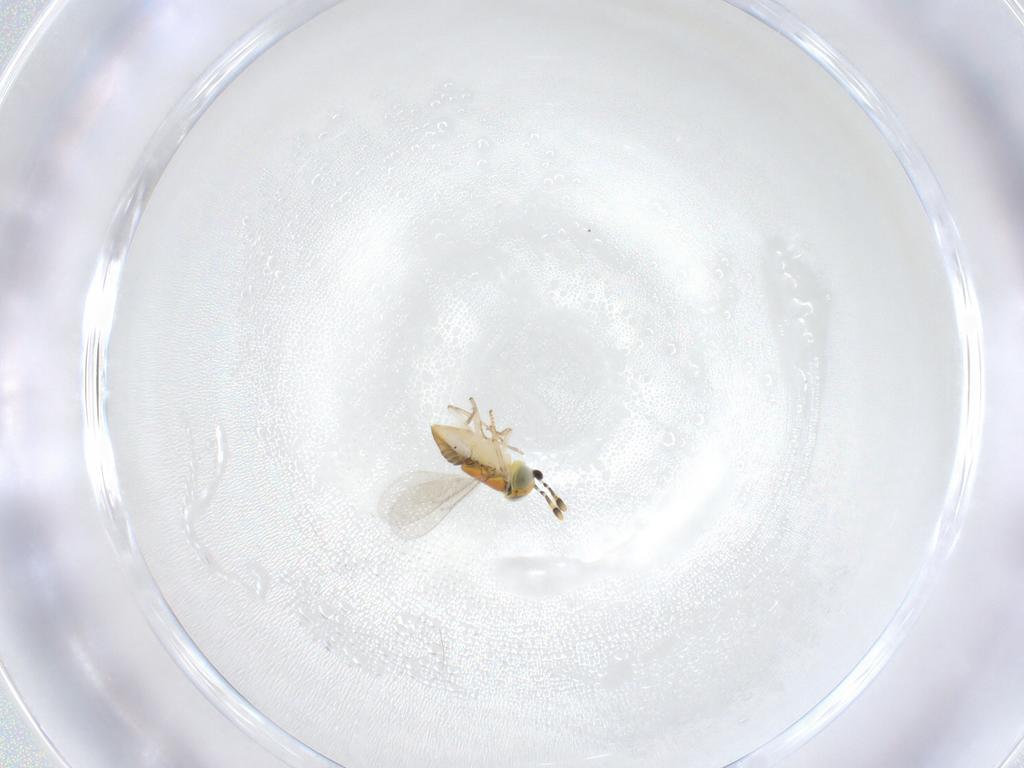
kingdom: Animalia
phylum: Arthropoda
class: Insecta
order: Hymenoptera
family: Encyrtidae
